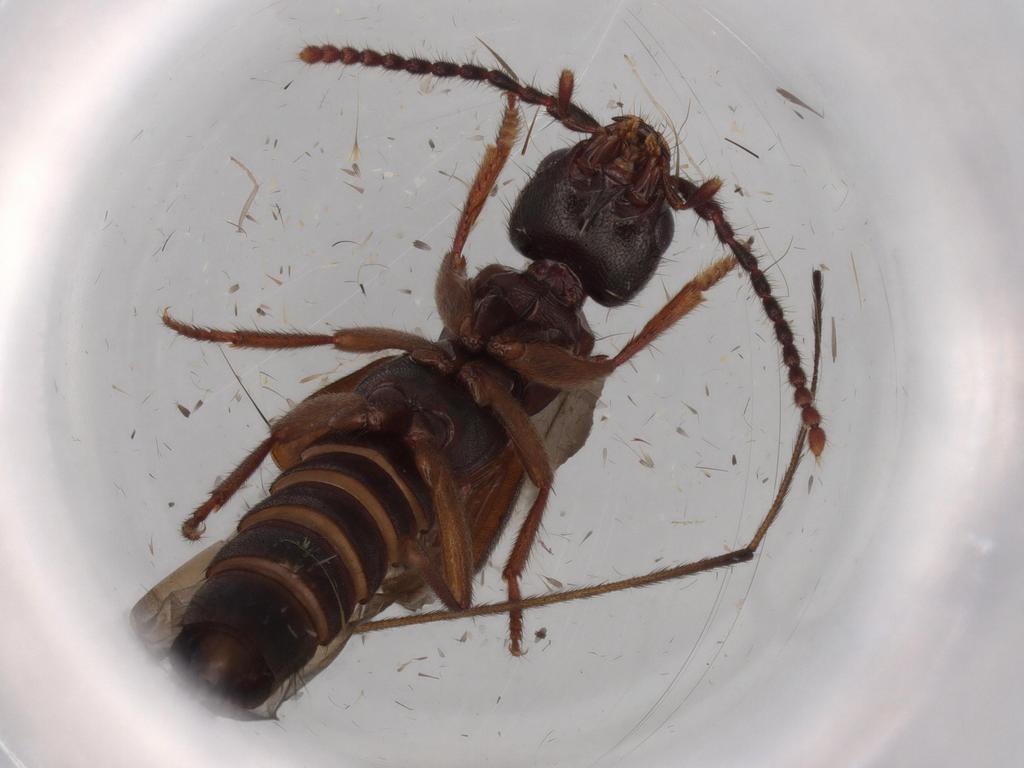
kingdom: Animalia
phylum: Arthropoda
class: Insecta
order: Coleoptera
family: Staphylinidae
